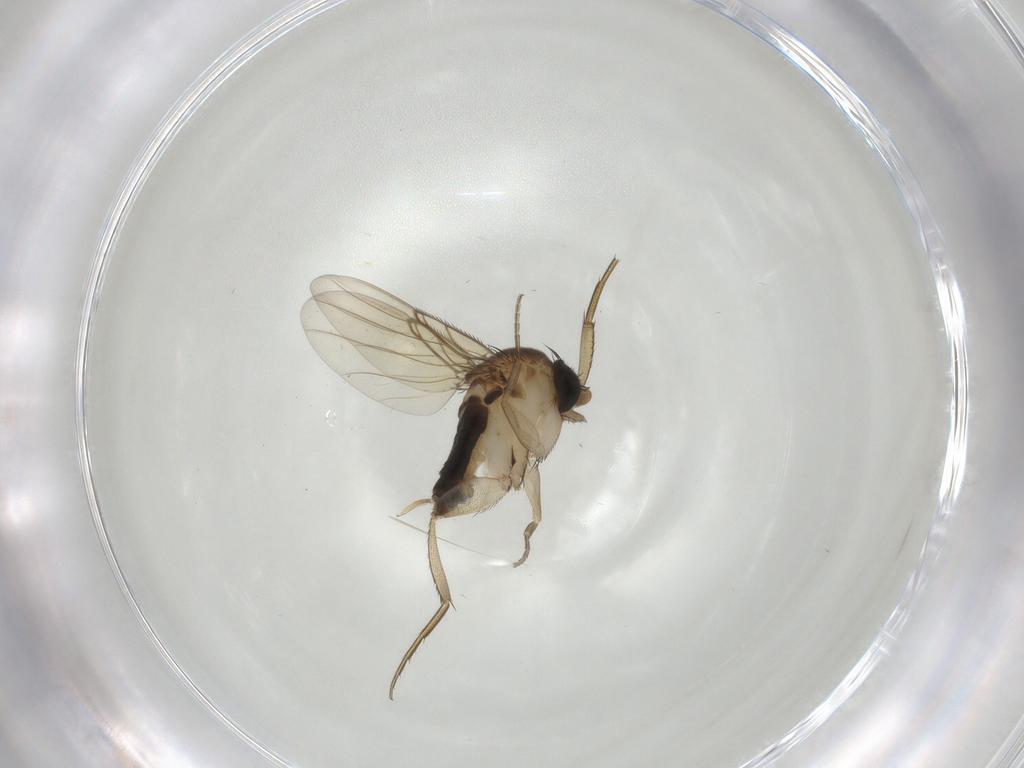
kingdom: Animalia
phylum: Arthropoda
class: Insecta
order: Diptera
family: Phoridae
